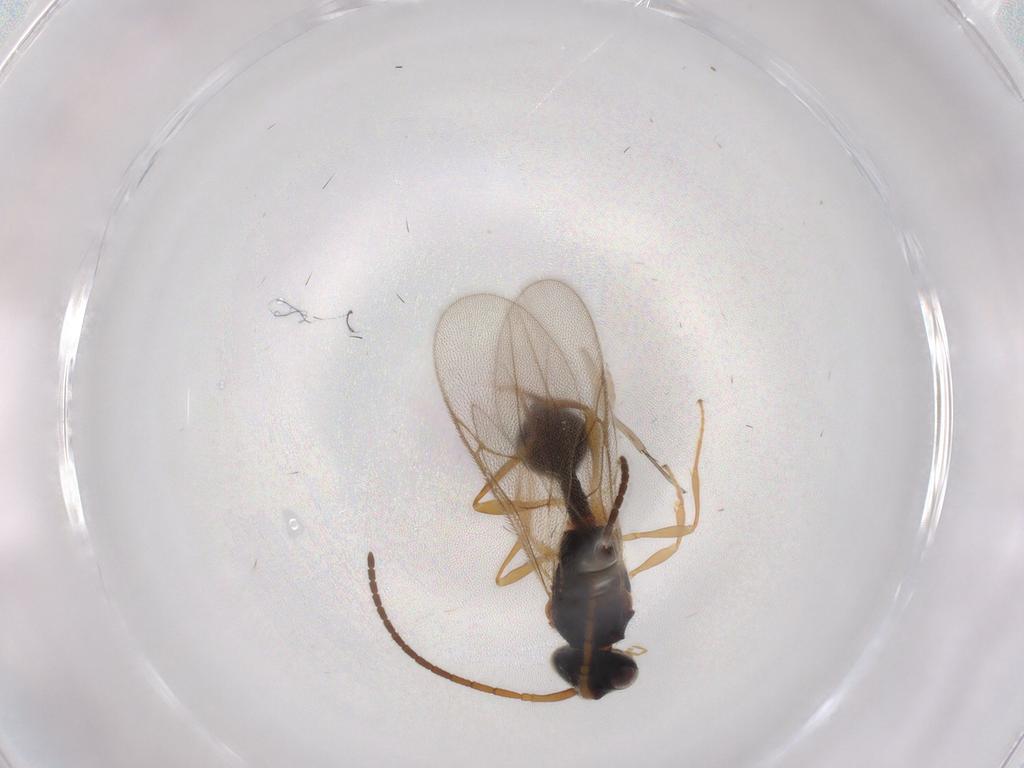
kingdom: Animalia
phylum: Arthropoda
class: Insecta
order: Hymenoptera
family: Diapriidae
